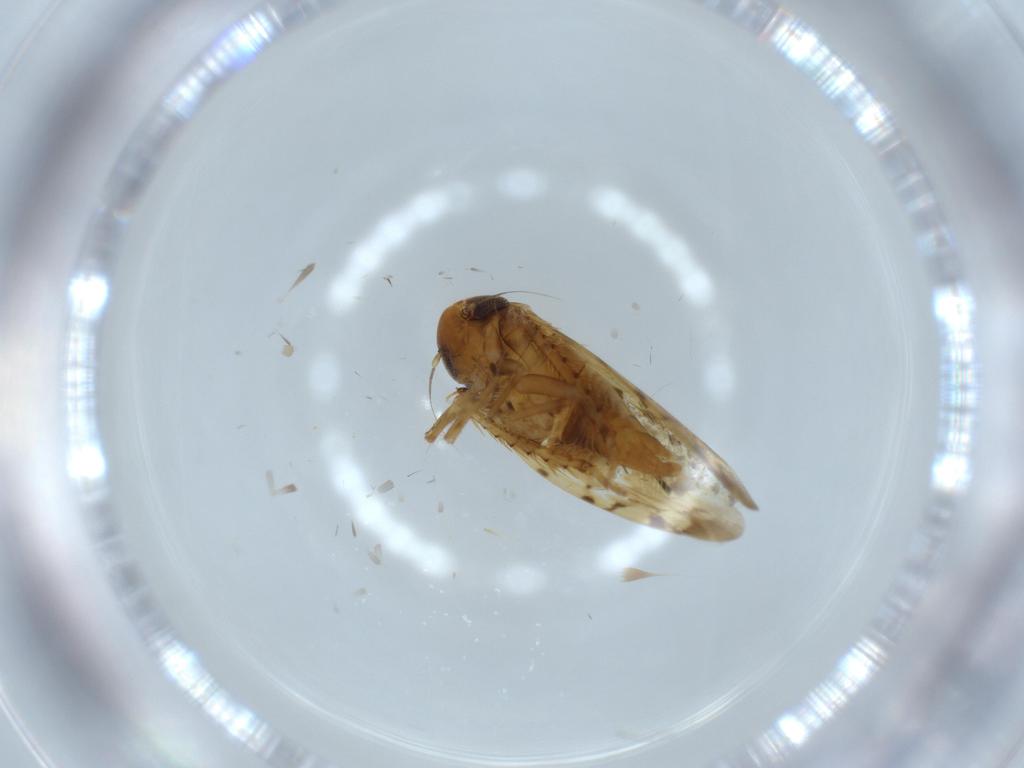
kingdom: Animalia
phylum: Arthropoda
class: Insecta
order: Hemiptera
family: Cicadellidae
